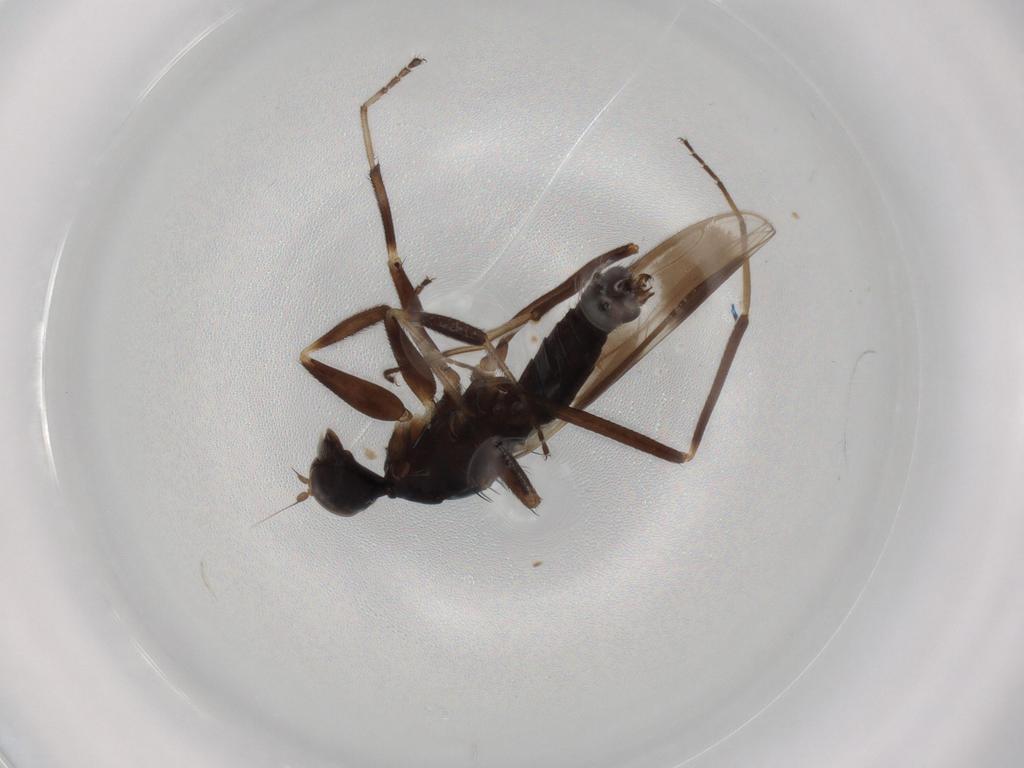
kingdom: Animalia
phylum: Arthropoda
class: Insecta
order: Diptera
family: Hybotidae
